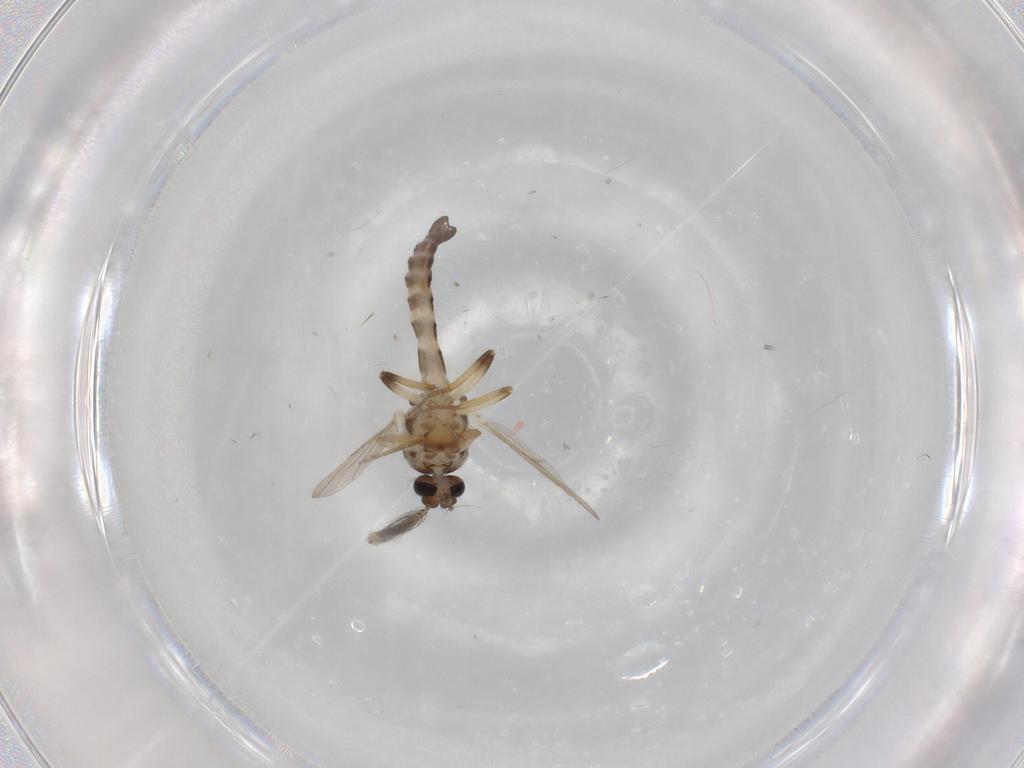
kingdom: Animalia
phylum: Arthropoda
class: Insecta
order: Diptera
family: Ceratopogonidae
